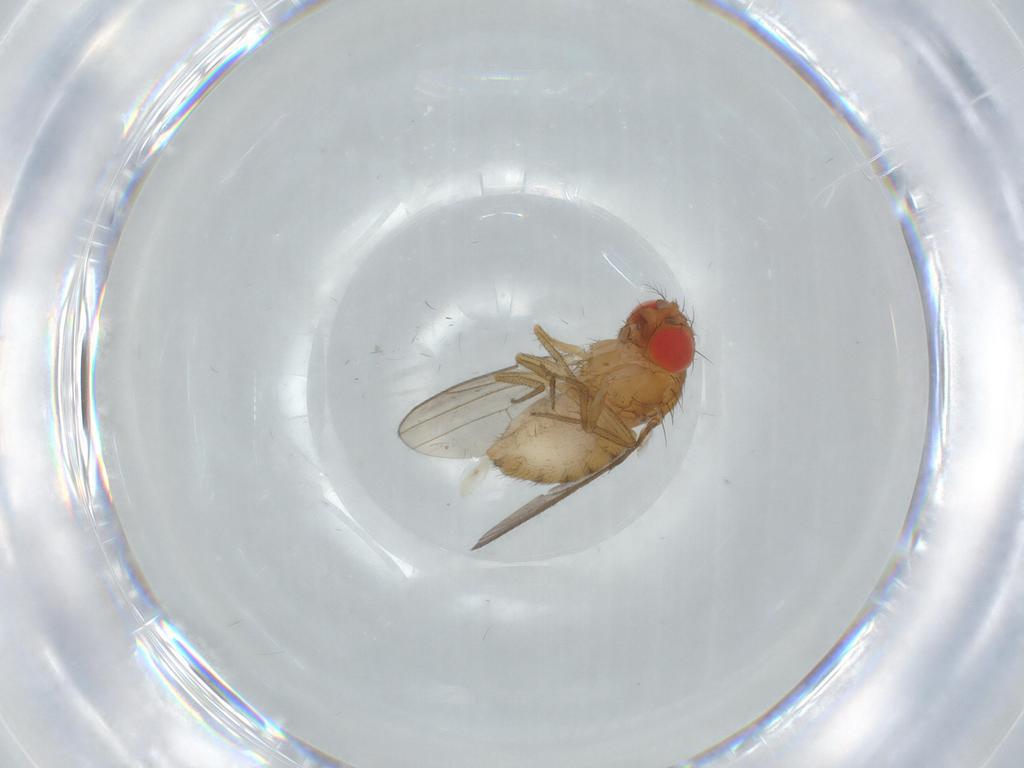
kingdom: Animalia
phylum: Arthropoda
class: Insecta
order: Diptera
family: Drosophilidae
